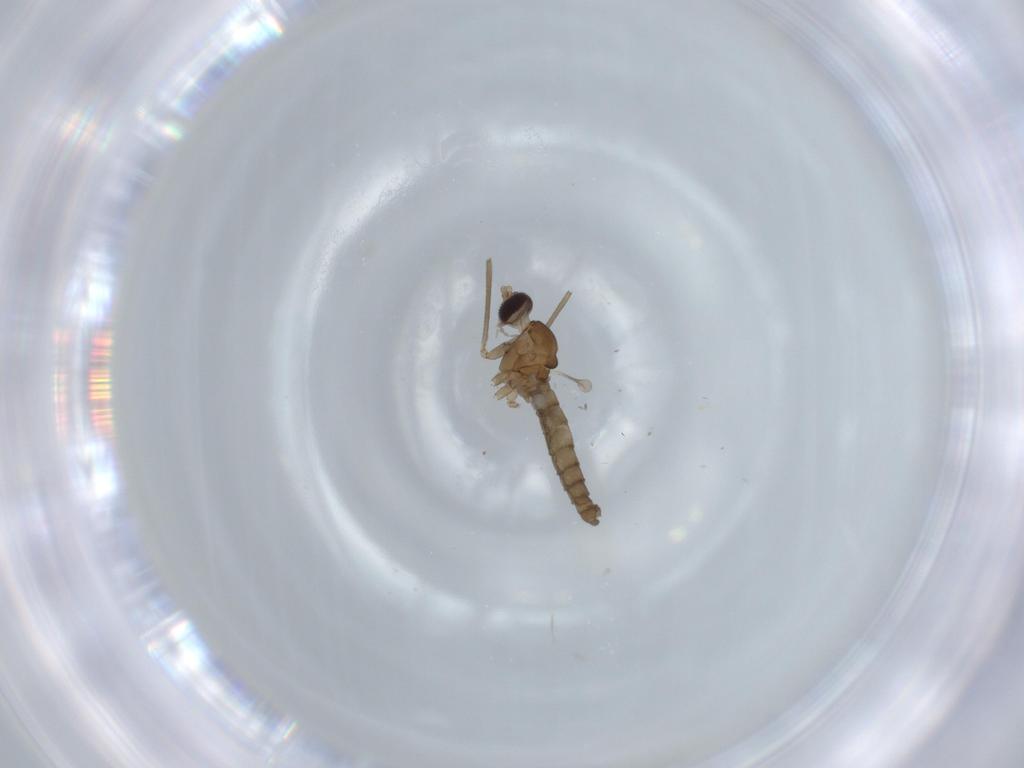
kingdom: Animalia
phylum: Arthropoda
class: Insecta
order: Diptera
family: Cecidomyiidae
